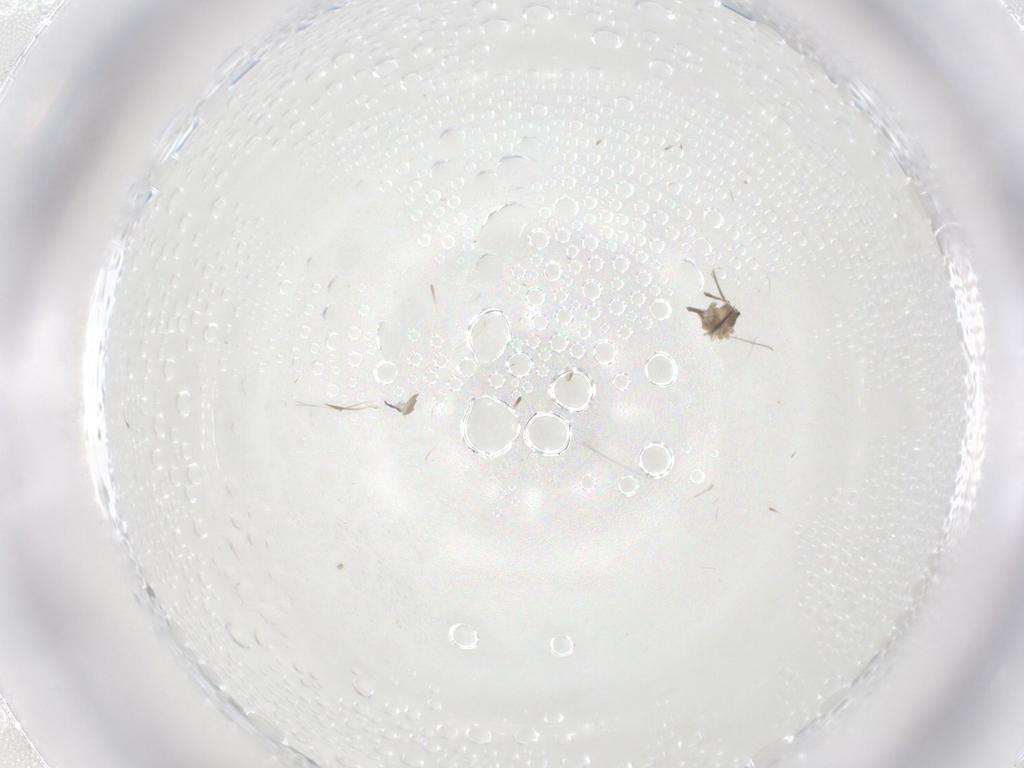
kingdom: Animalia
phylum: Arthropoda
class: Insecta
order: Diptera
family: Cecidomyiidae
